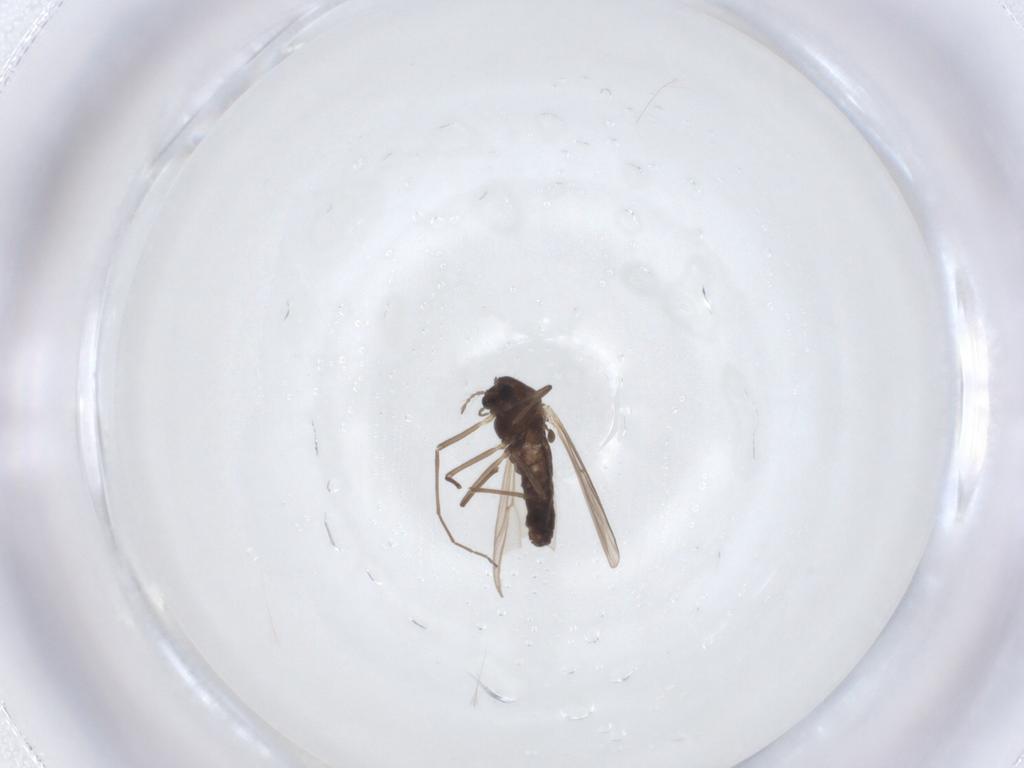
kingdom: Animalia
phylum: Arthropoda
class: Insecta
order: Diptera
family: Chironomidae
